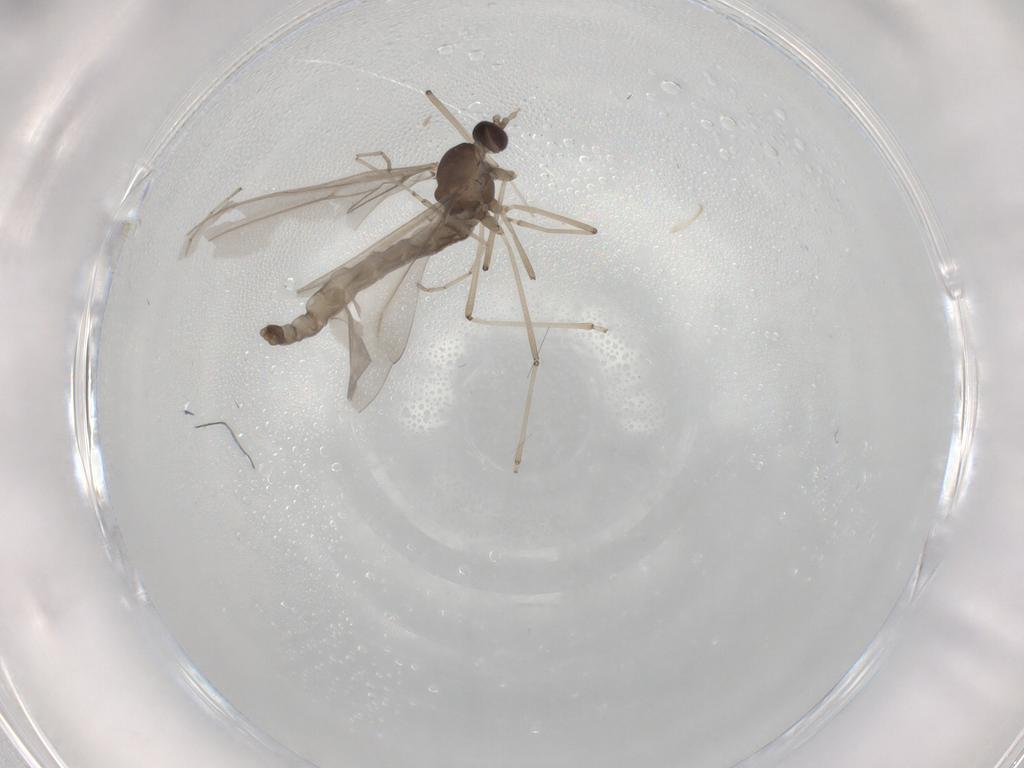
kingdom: Animalia
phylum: Arthropoda
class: Insecta
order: Diptera
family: Cecidomyiidae
